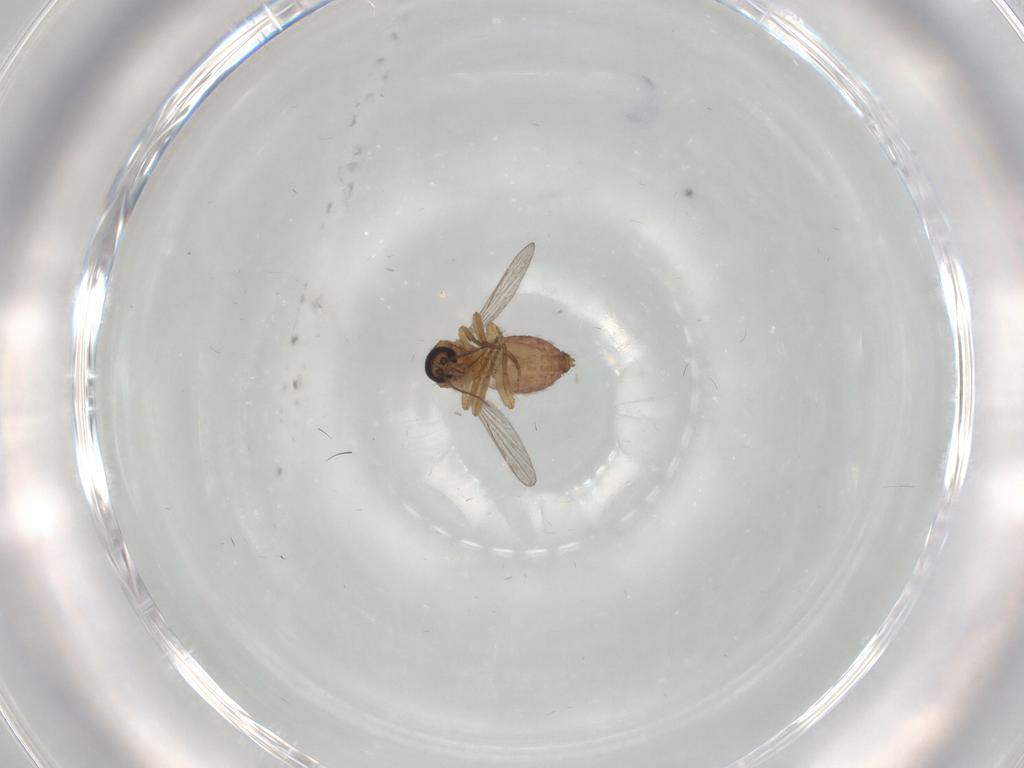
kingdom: Animalia
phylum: Arthropoda
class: Insecta
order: Diptera
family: Ceratopogonidae
